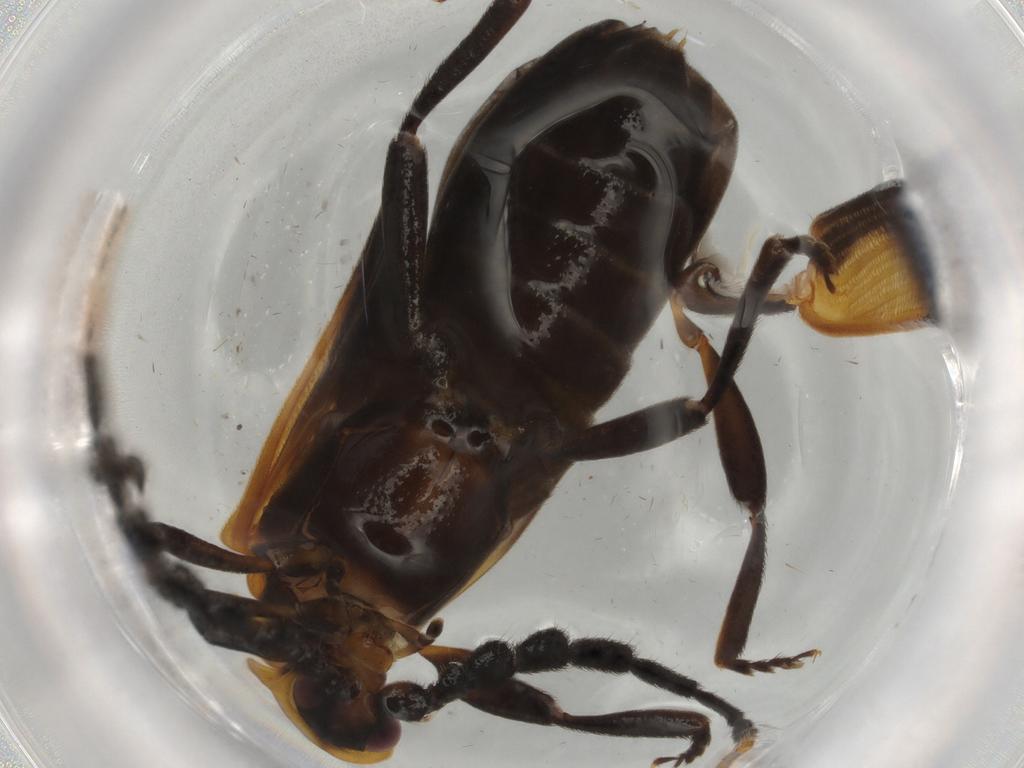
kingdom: Animalia
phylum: Arthropoda
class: Insecta
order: Coleoptera
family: Lycidae
